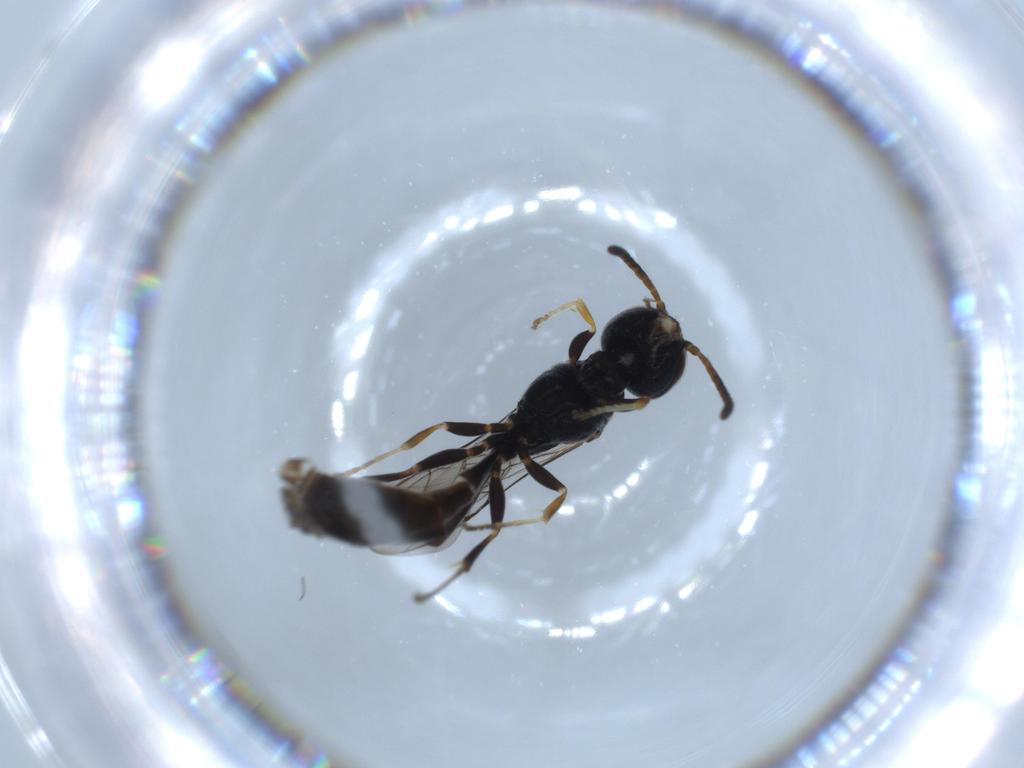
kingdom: Animalia
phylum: Arthropoda
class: Insecta
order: Hymenoptera
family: Crabronidae
